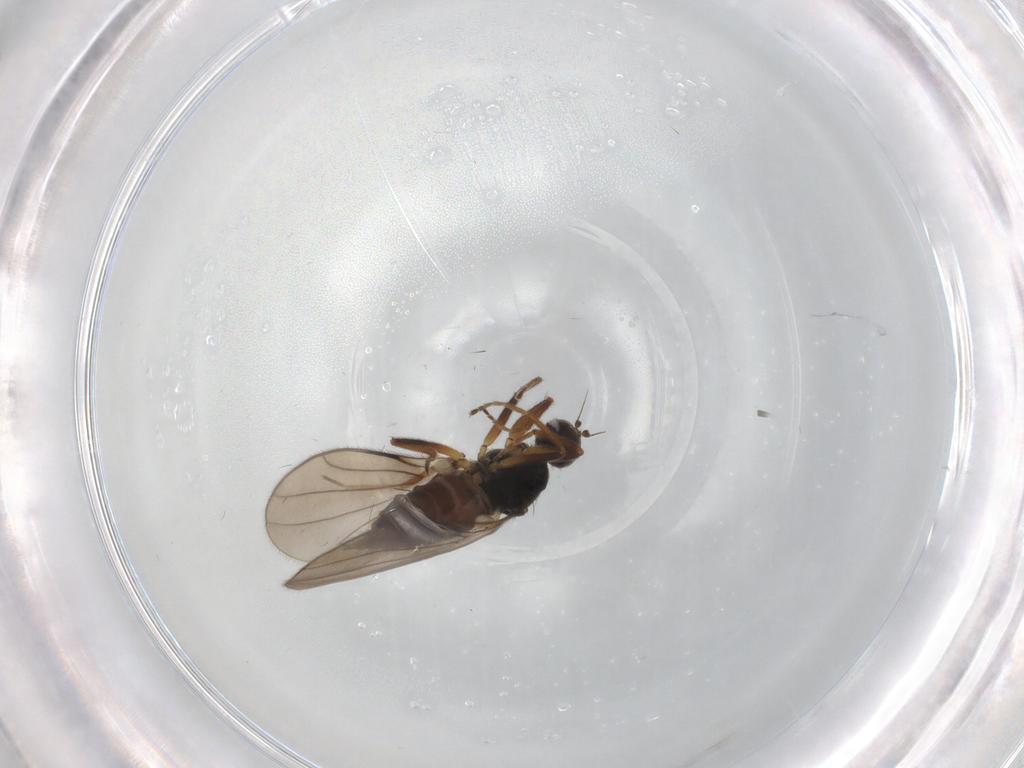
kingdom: Animalia
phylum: Arthropoda
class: Insecta
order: Diptera
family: Hybotidae
